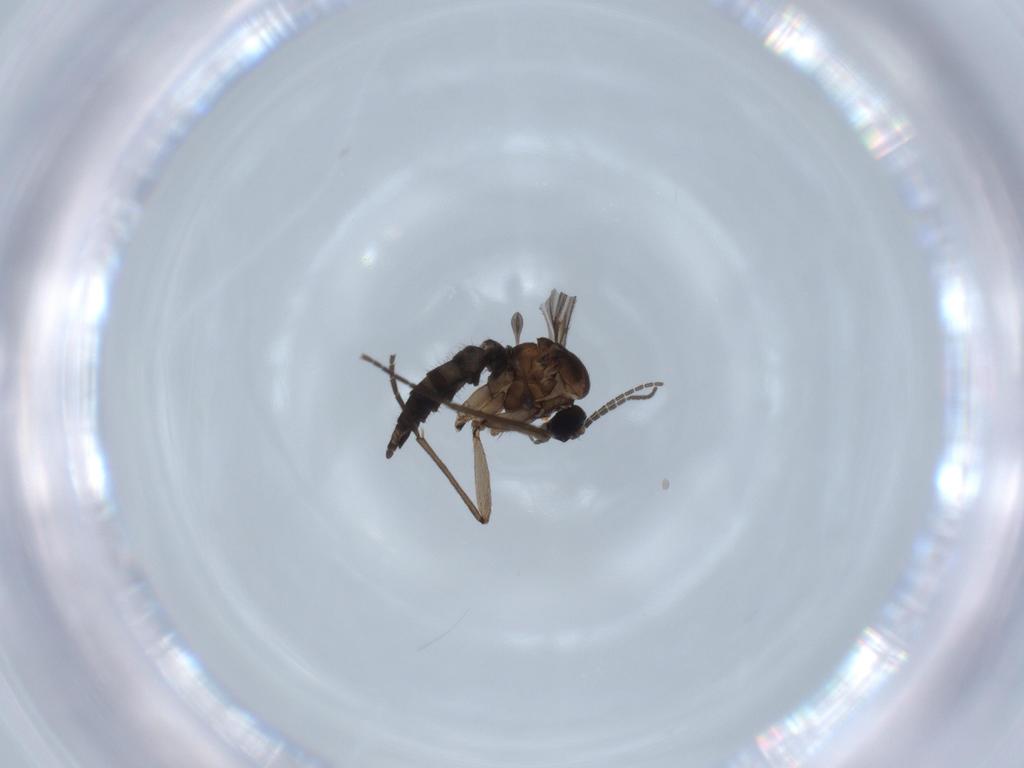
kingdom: Animalia
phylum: Arthropoda
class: Insecta
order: Diptera
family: Sciaridae
